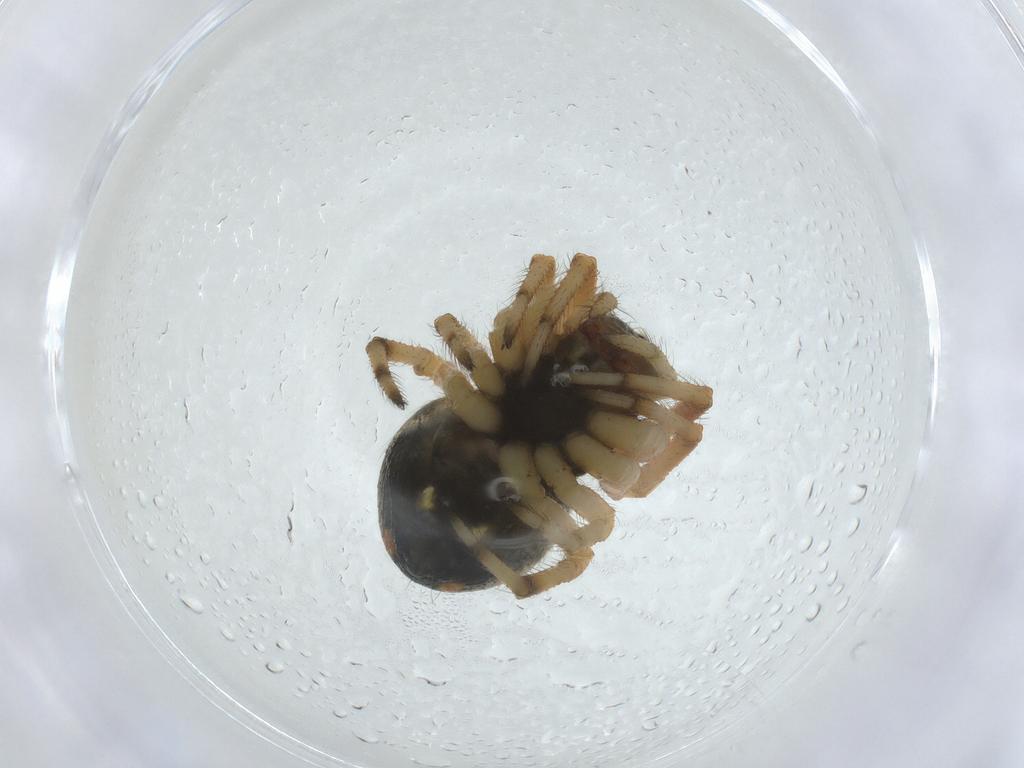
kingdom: Animalia
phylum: Arthropoda
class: Arachnida
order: Araneae
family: Araneidae
